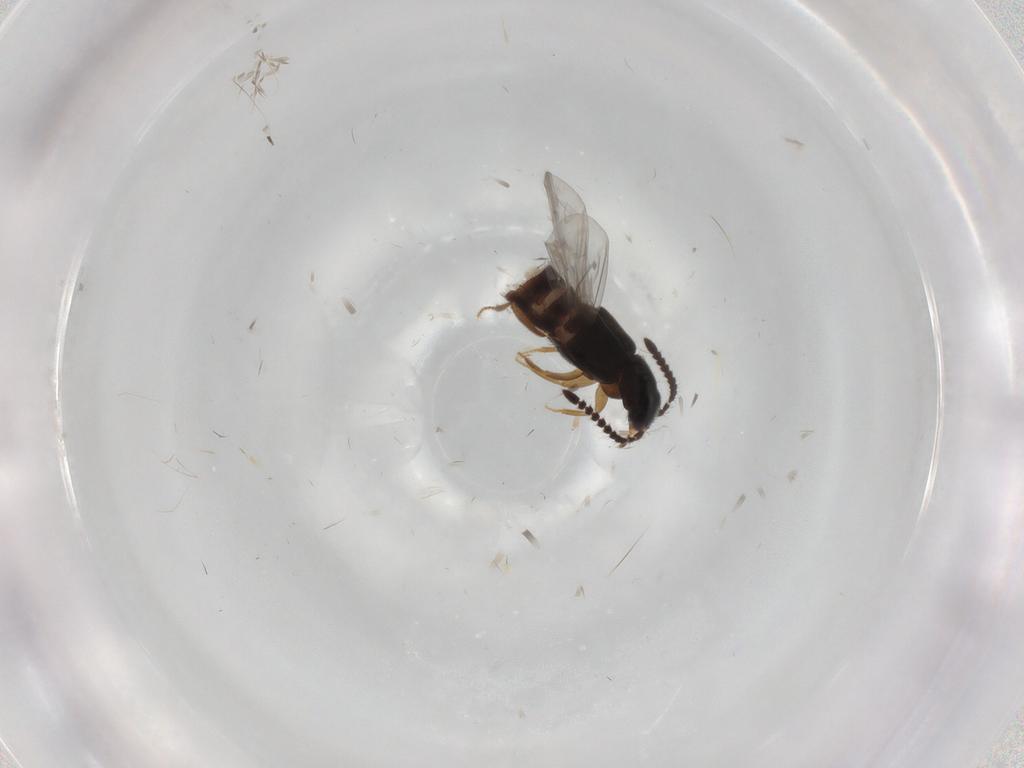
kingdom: Animalia
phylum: Arthropoda
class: Insecta
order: Coleoptera
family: Staphylinidae
